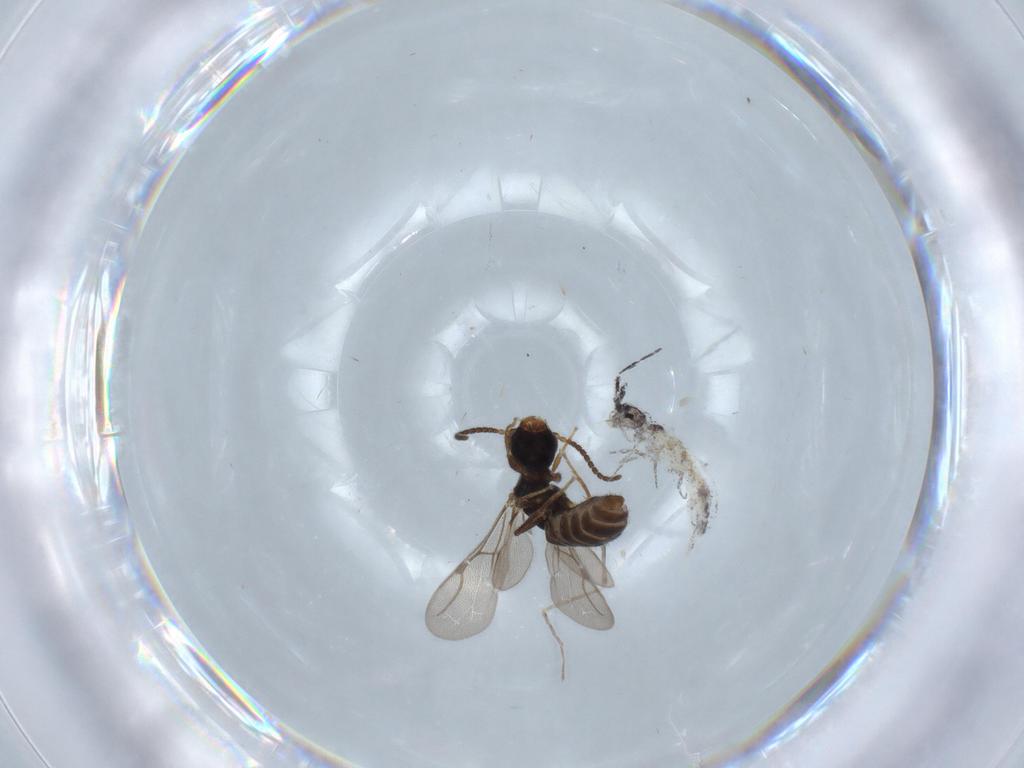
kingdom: Animalia
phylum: Arthropoda
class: Collembola
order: Entomobryomorpha
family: Isotomidae
